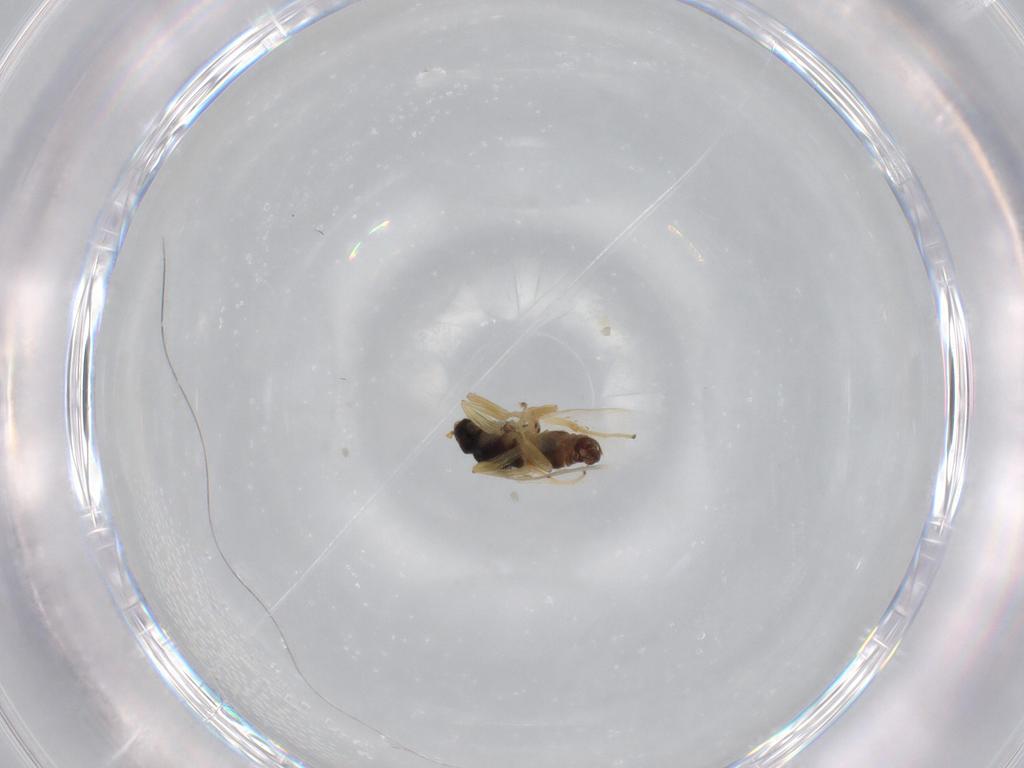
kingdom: Animalia
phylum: Arthropoda
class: Insecta
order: Diptera
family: Hybotidae
